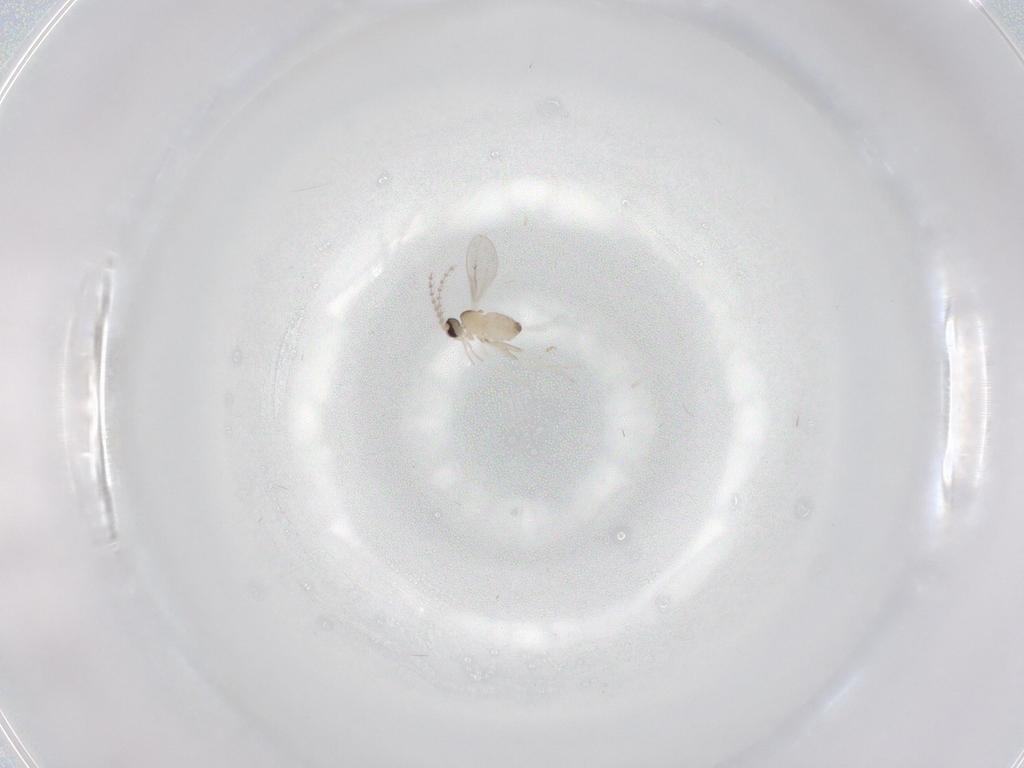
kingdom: Animalia
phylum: Arthropoda
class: Insecta
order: Diptera
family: Cecidomyiidae
